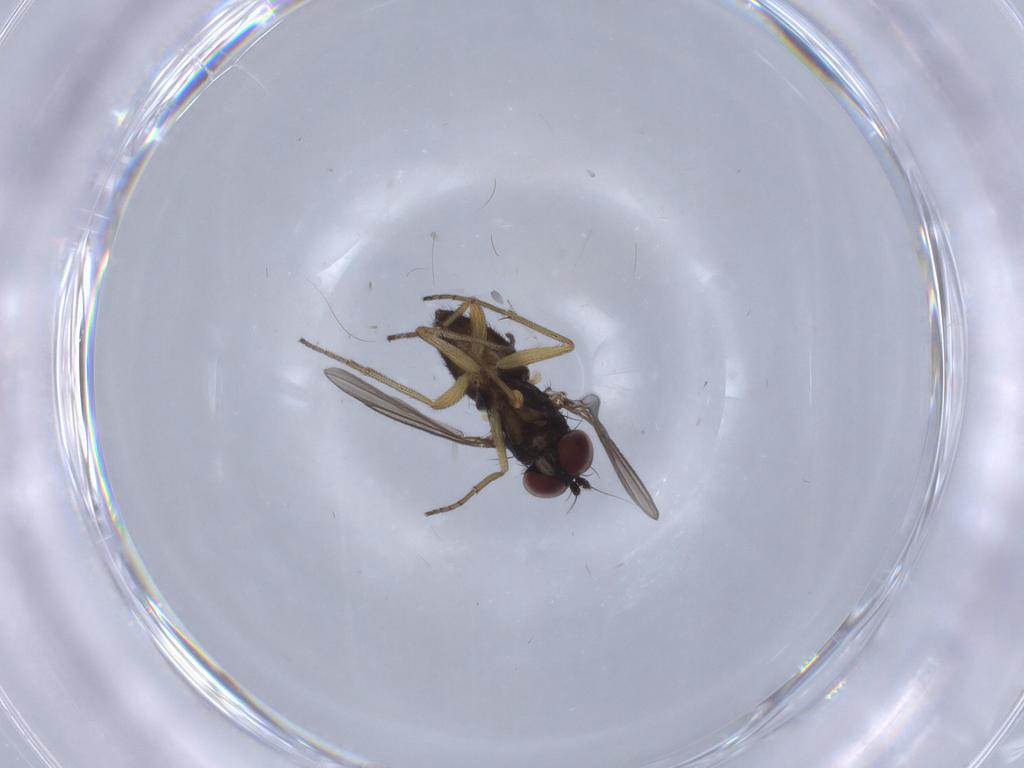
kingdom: Animalia
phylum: Arthropoda
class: Insecta
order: Diptera
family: Dolichopodidae
